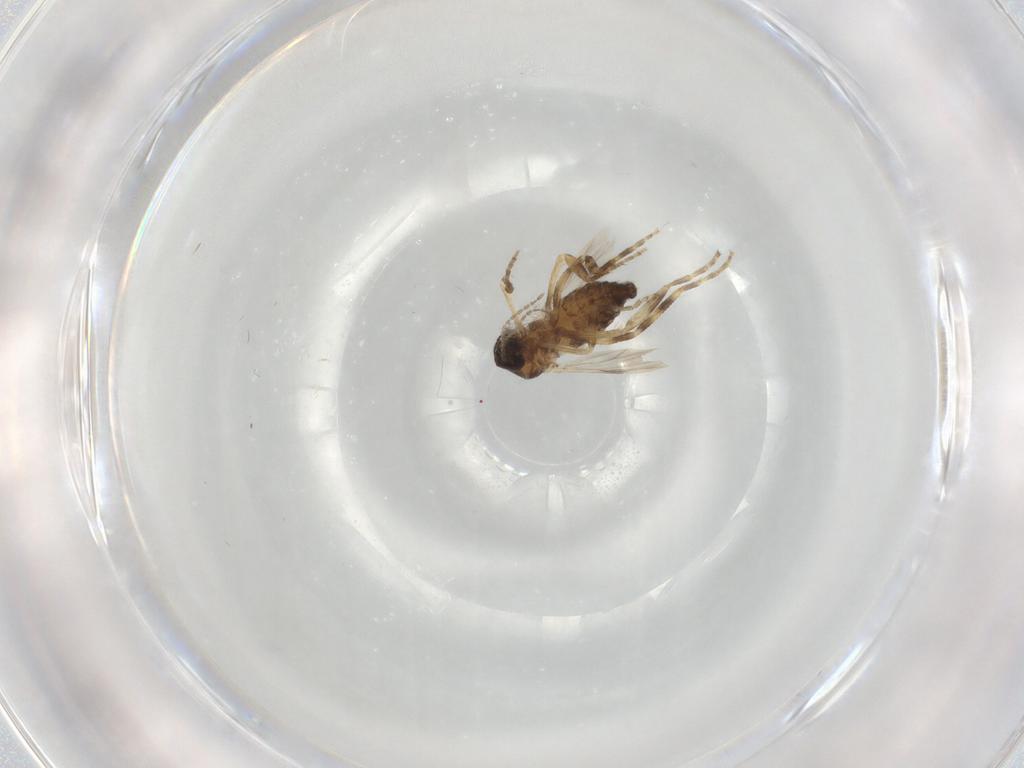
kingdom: Animalia
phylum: Arthropoda
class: Insecta
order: Diptera
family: Ceratopogonidae
